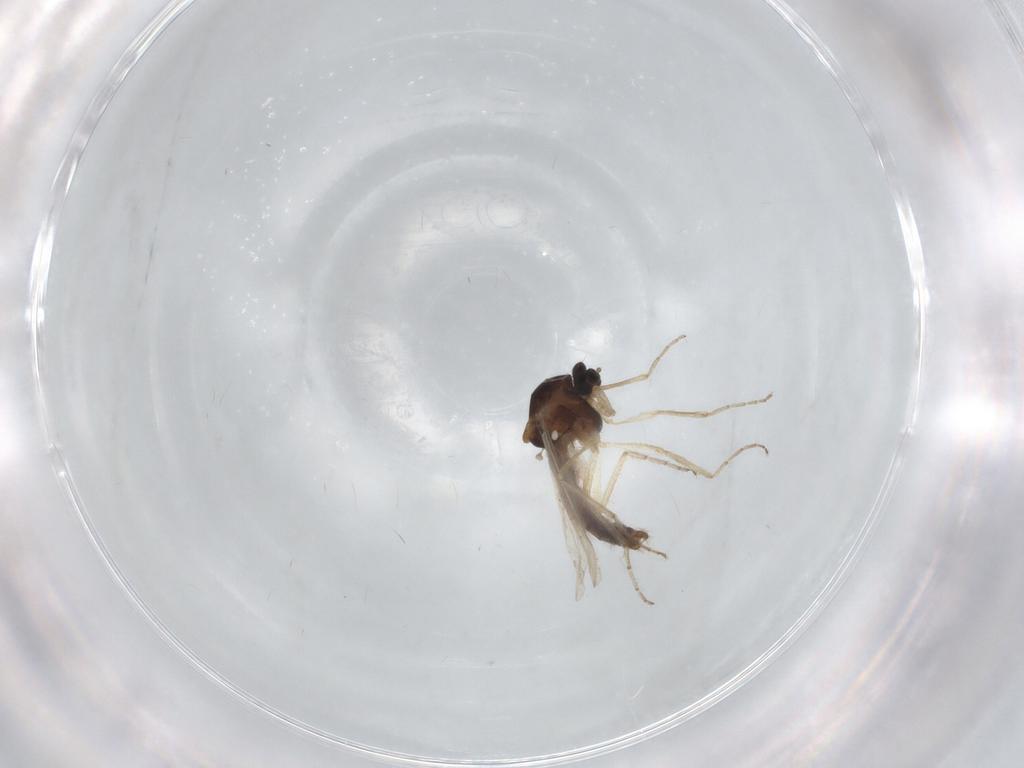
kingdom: Animalia
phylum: Arthropoda
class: Insecta
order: Diptera
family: Ceratopogonidae
